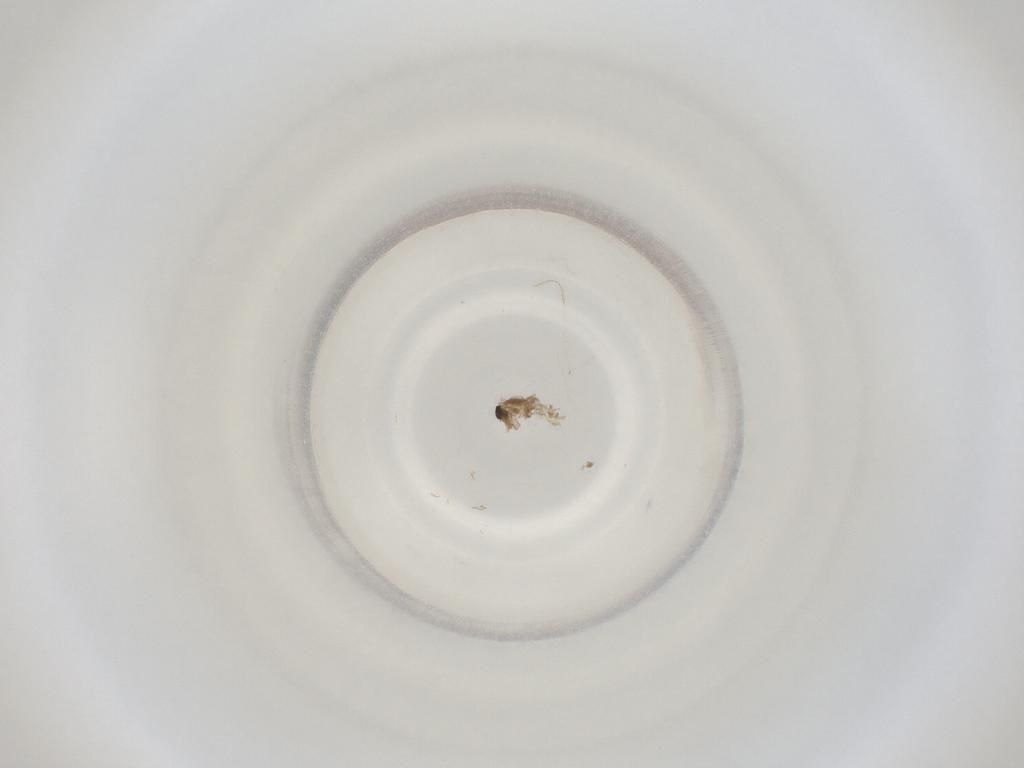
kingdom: Animalia
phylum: Arthropoda
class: Insecta
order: Diptera
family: Cecidomyiidae
